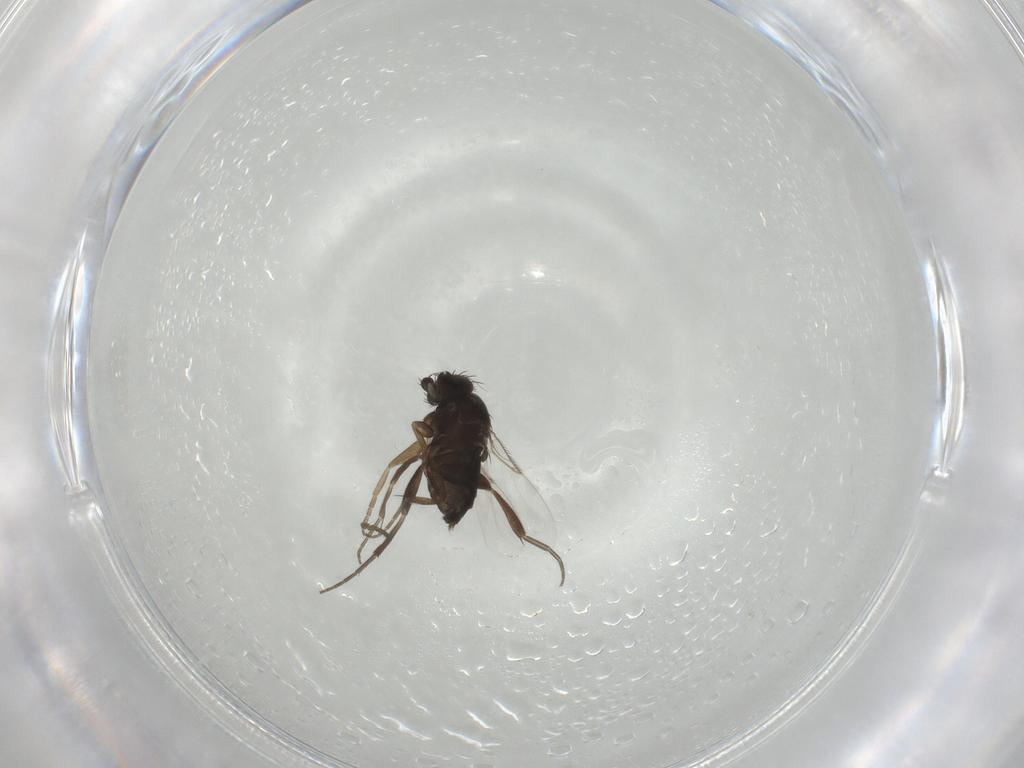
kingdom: Animalia
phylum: Arthropoda
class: Insecta
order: Diptera
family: Phoridae
